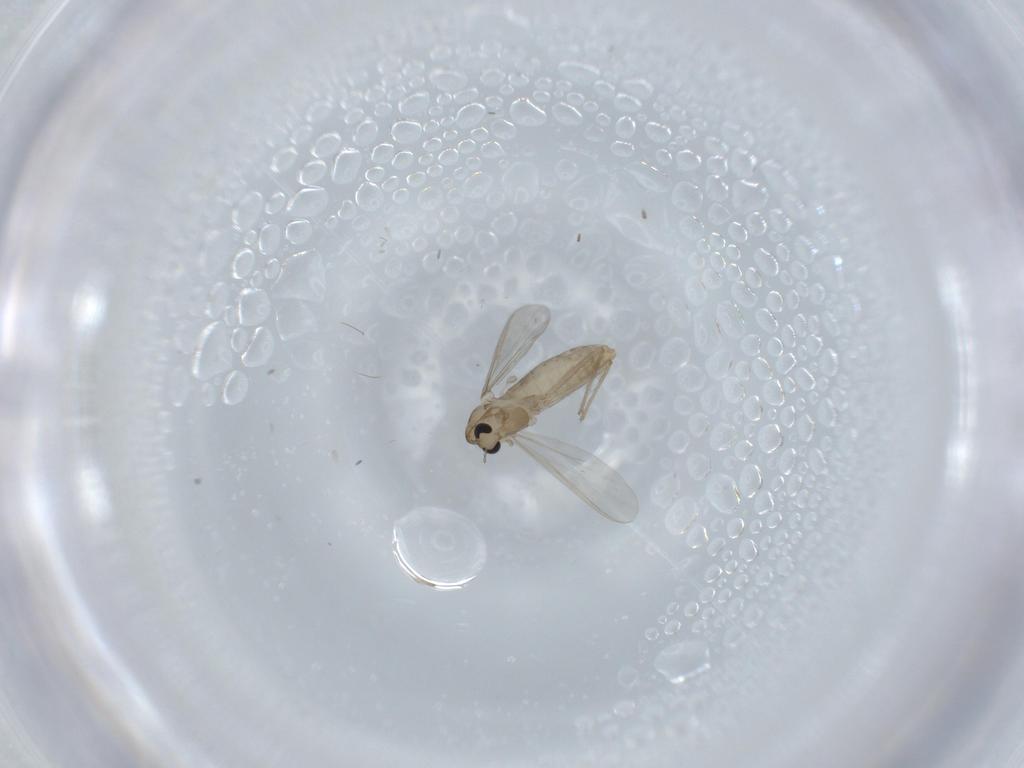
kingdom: Animalia
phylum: Arthropoda
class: Insecta
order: Diptera
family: Chironomidae
